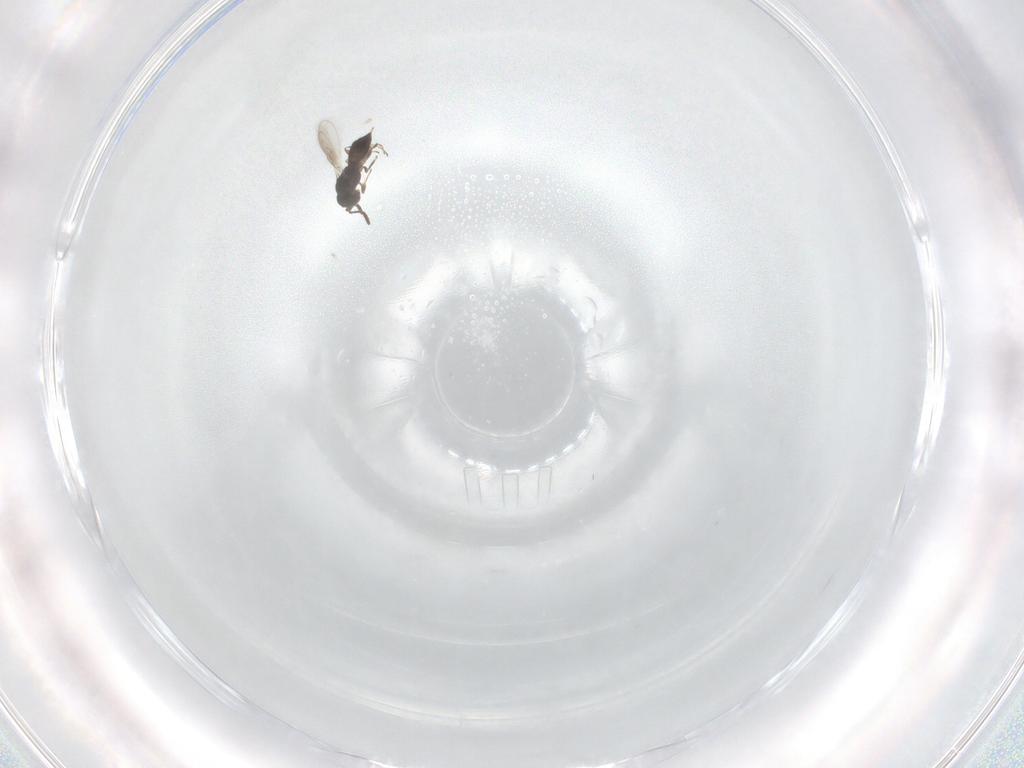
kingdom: Animalia
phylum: Arthropoda
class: Insecta
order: Hymenoptera
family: Scelionidae
